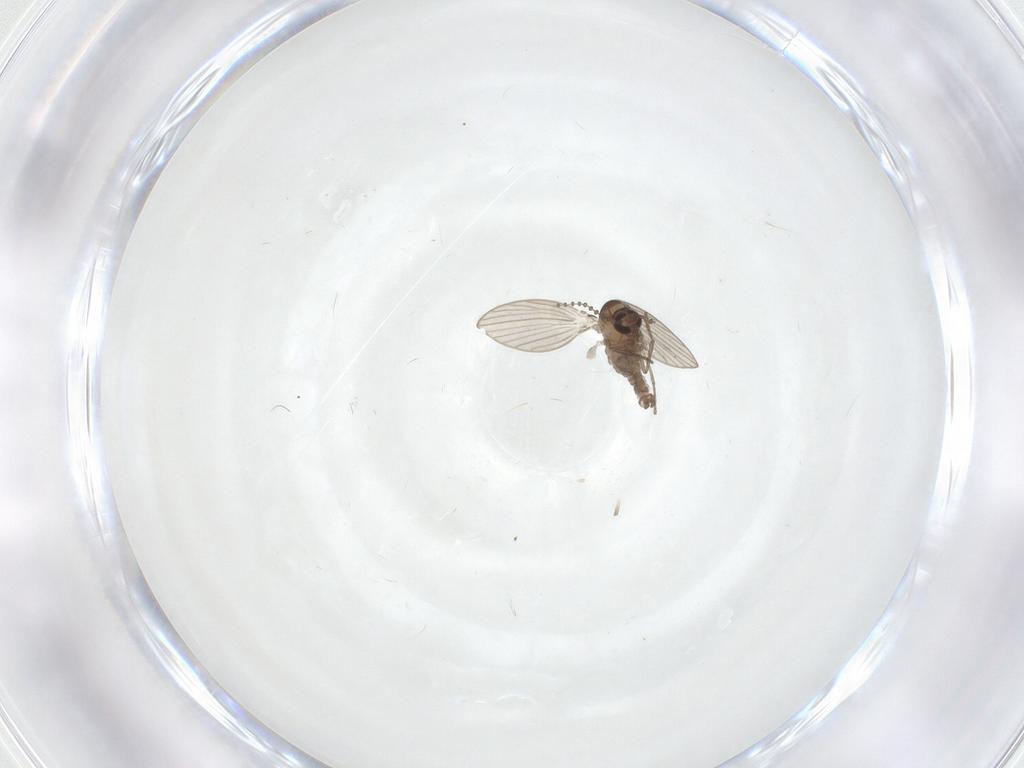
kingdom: Animalia
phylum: Arthropoda
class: Insecta
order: Diptera
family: Psychodidae
